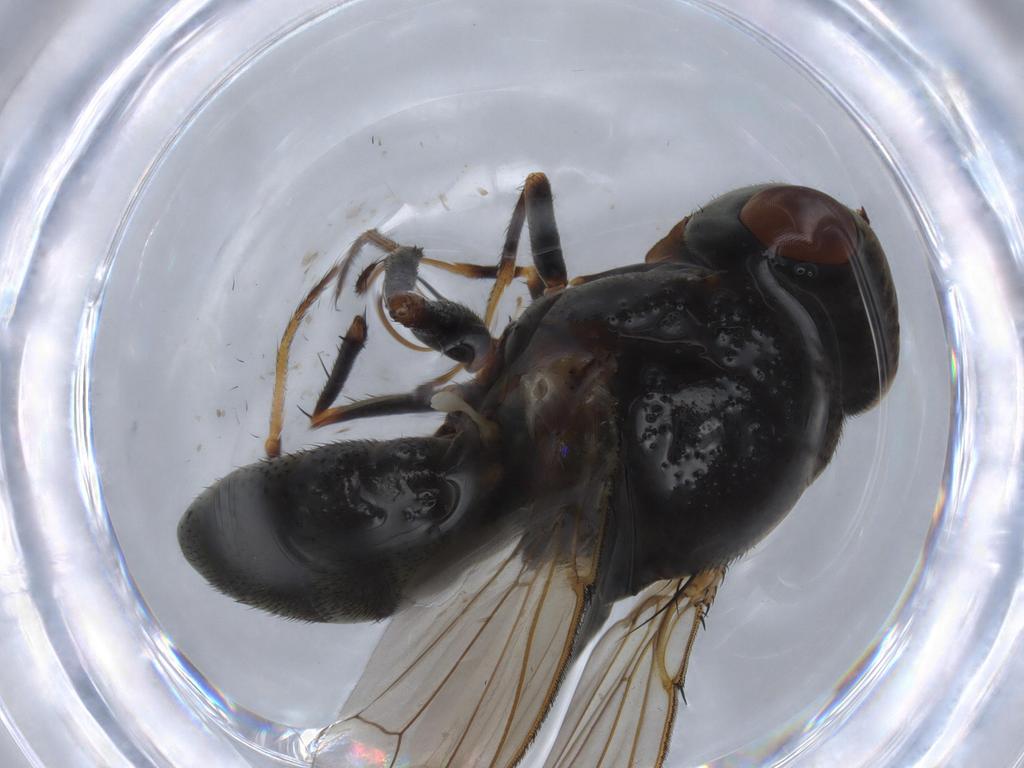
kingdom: Animalia
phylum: Arthropoda
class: Insecta
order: Diptera
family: Ephydridae
